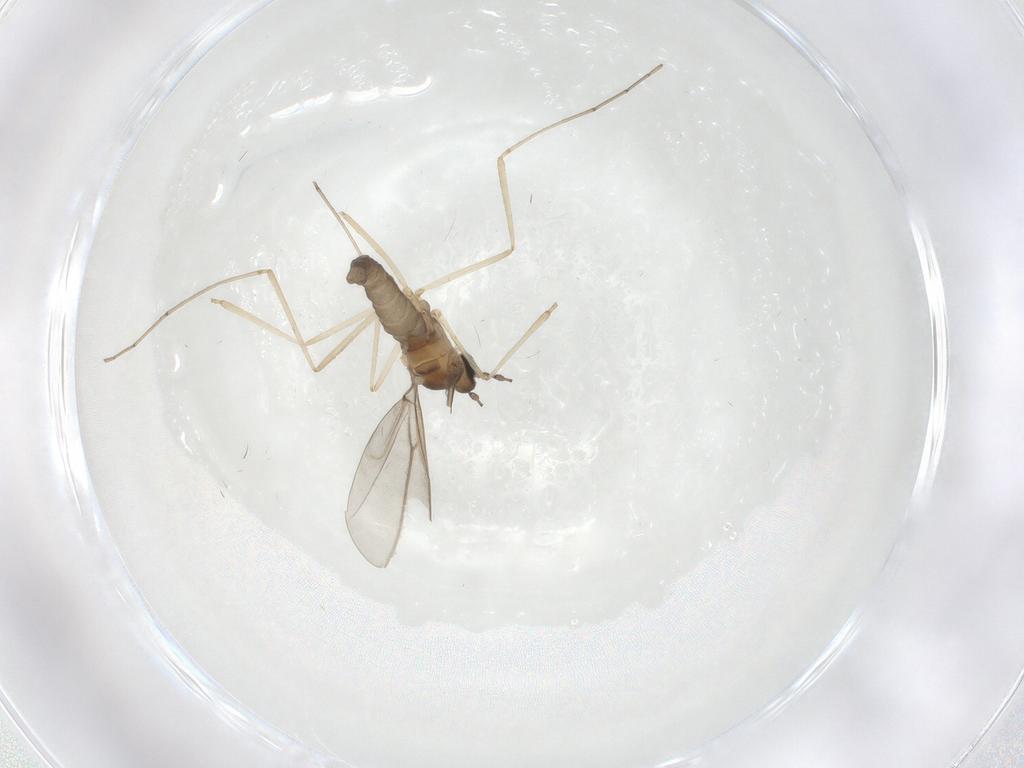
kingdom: Animalia
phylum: Arthropoda
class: Insecta
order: Diptera
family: Cecidomyiidae
